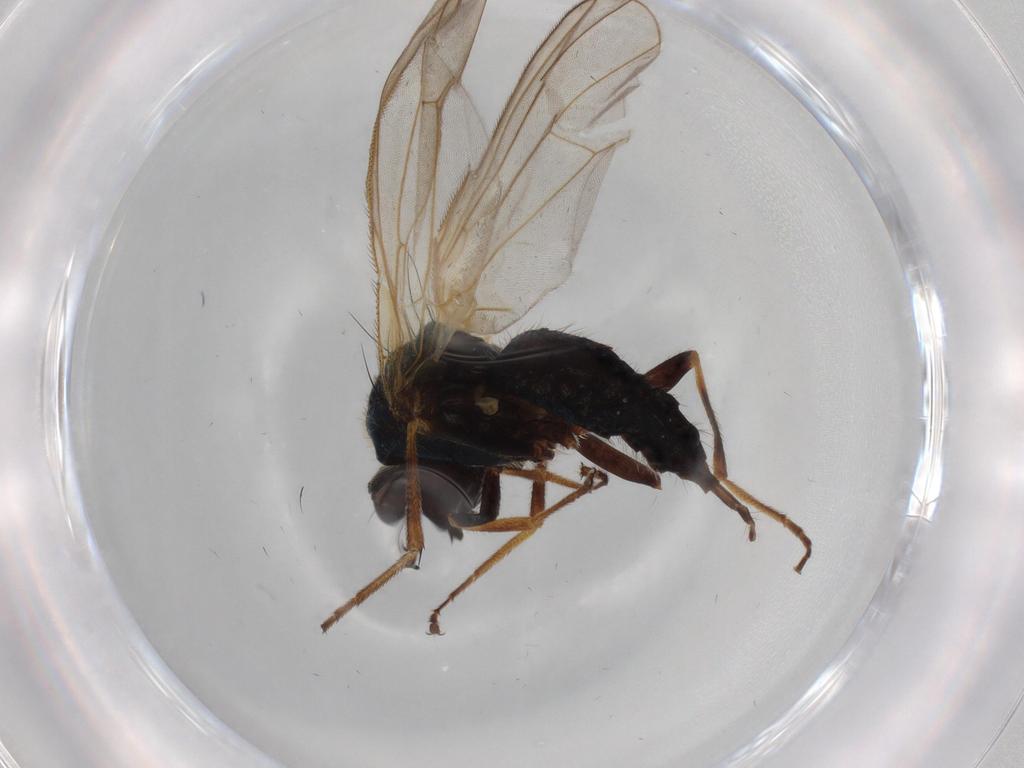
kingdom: Animalia
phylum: Arthropoda
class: Insecta
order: Diptera
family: Psilidae
